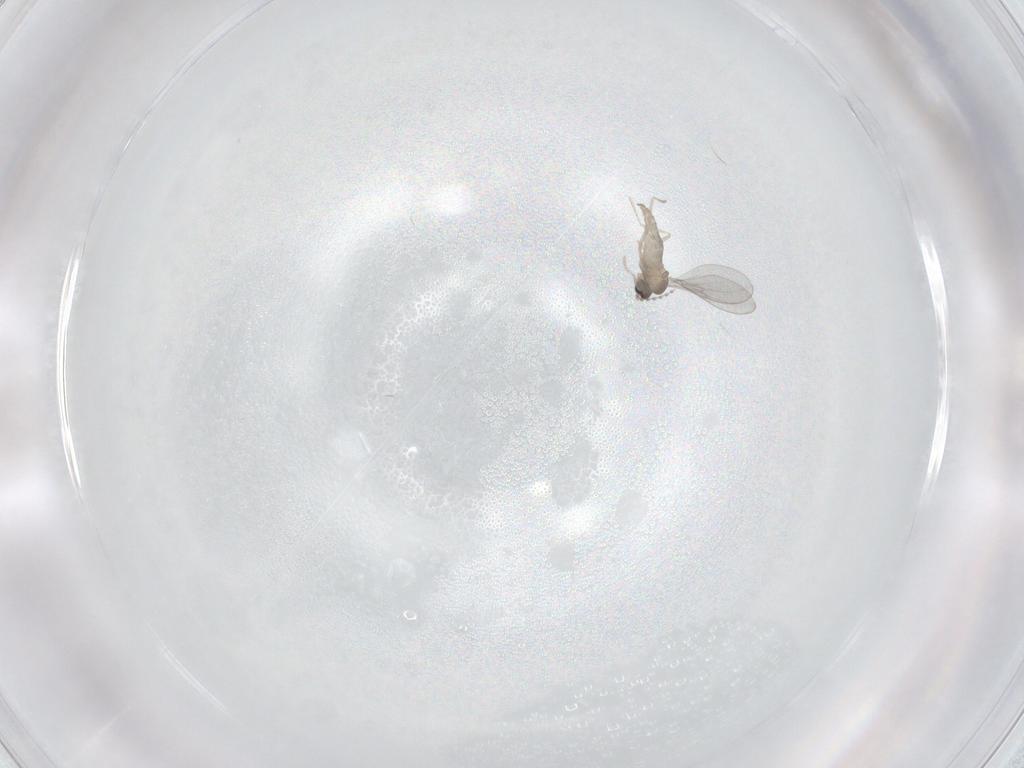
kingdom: Animalia
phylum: Arthropoda
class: Insecta
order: Diptera
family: Cecidomyiidae
